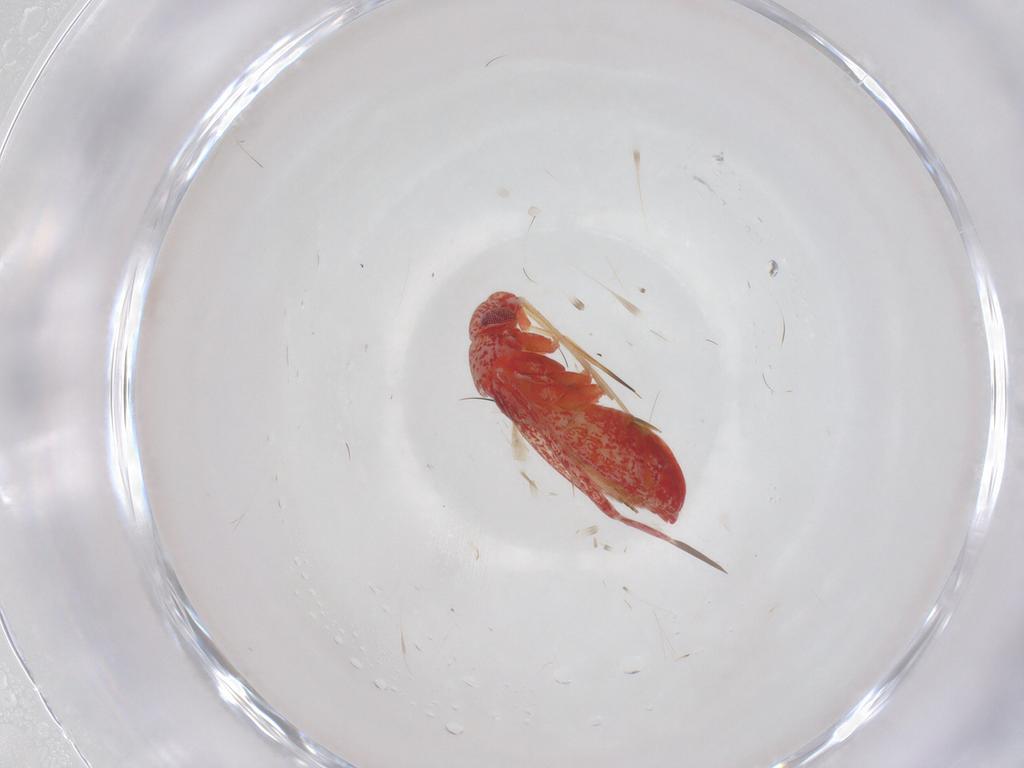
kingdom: Animalia
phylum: Arthropoda
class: Insecta
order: Hemiptera
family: Miridae
